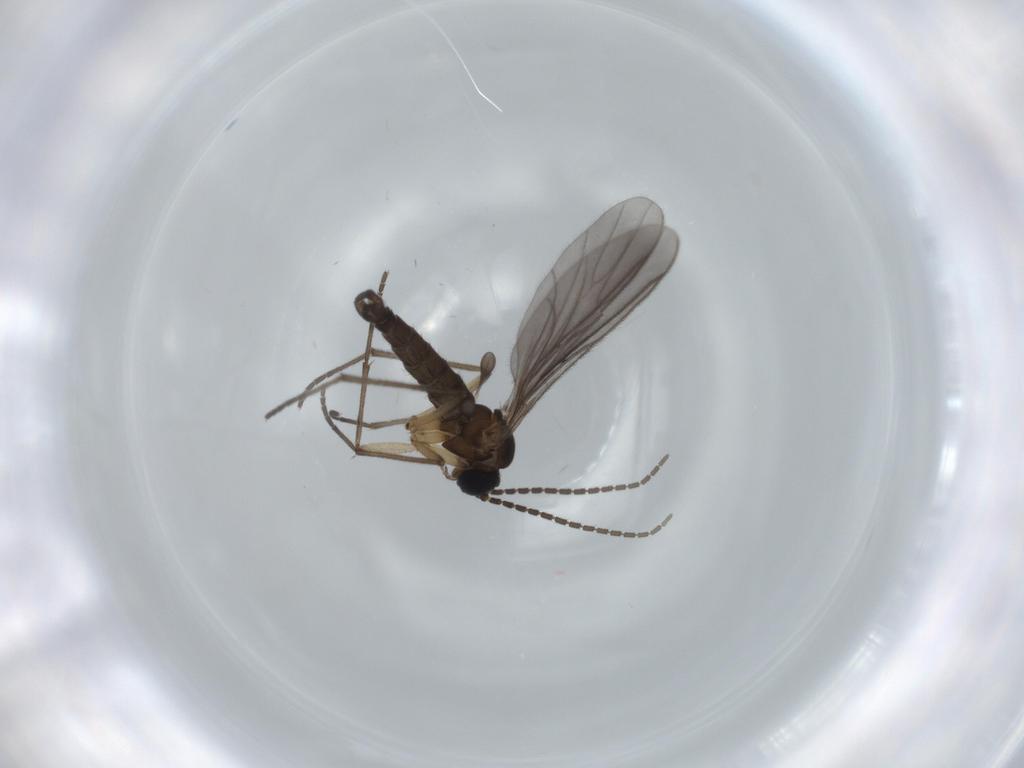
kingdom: Animalia
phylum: Arthropoda
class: Insecta
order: Diptera
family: Sciaridae
